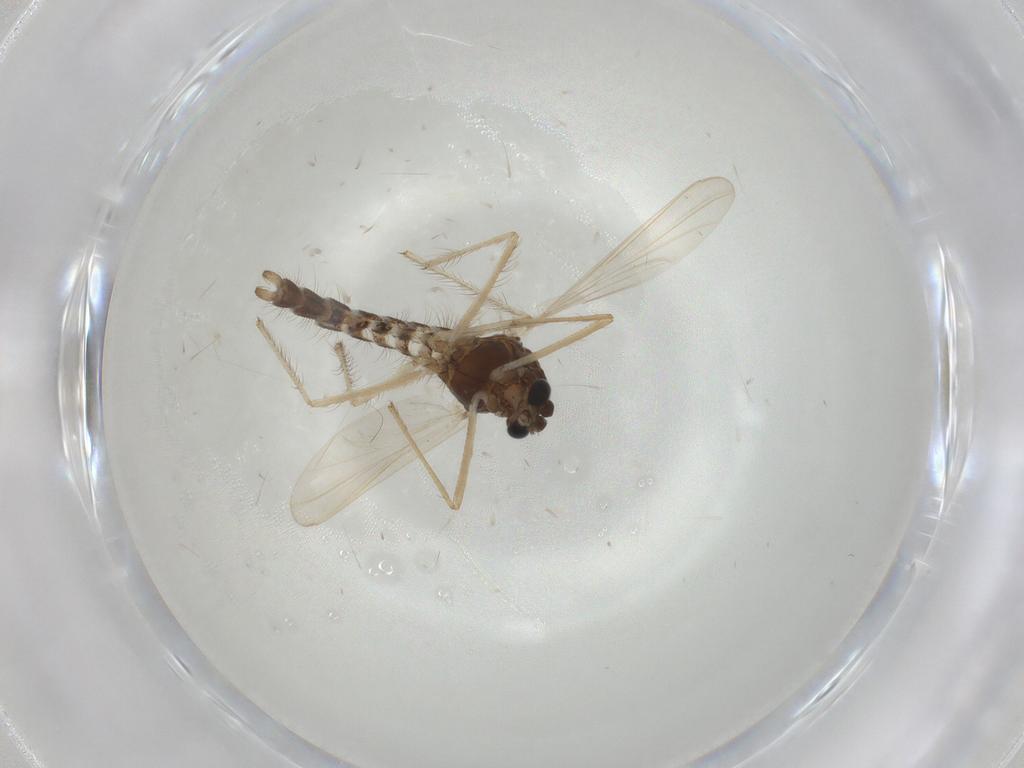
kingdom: Animalia
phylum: Arthropoda
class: Insecta
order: Diptera
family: Chironomidae
